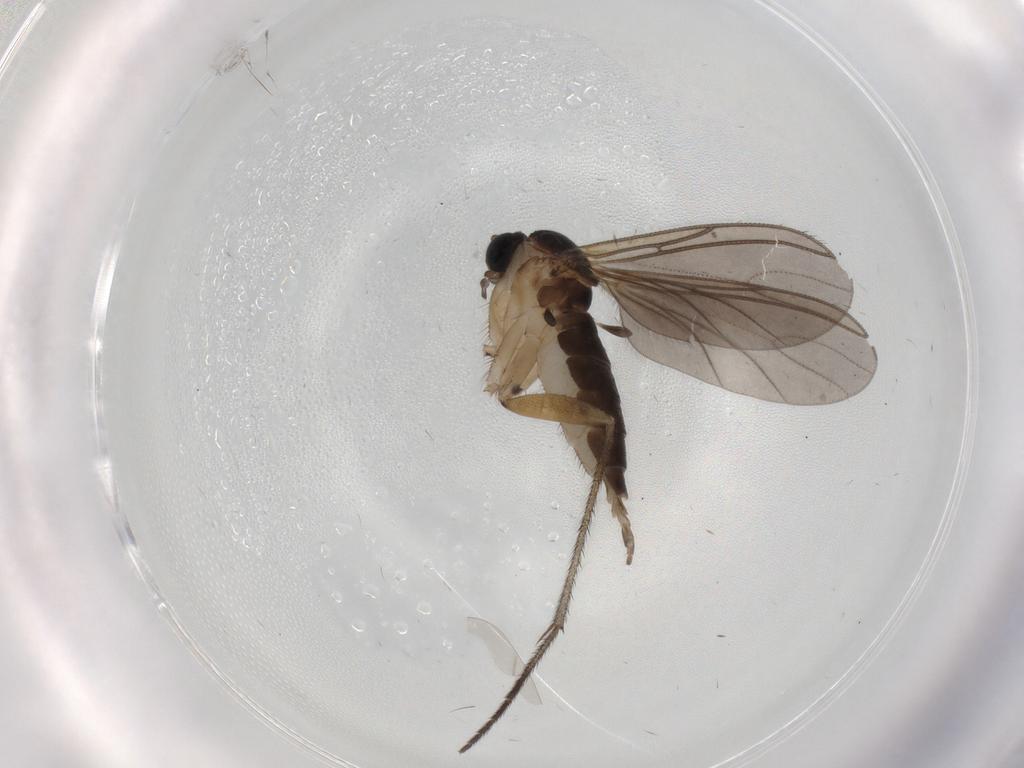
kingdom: Animalia
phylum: Arthropoda
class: Insecta
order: Diptera
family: Sciaridae
